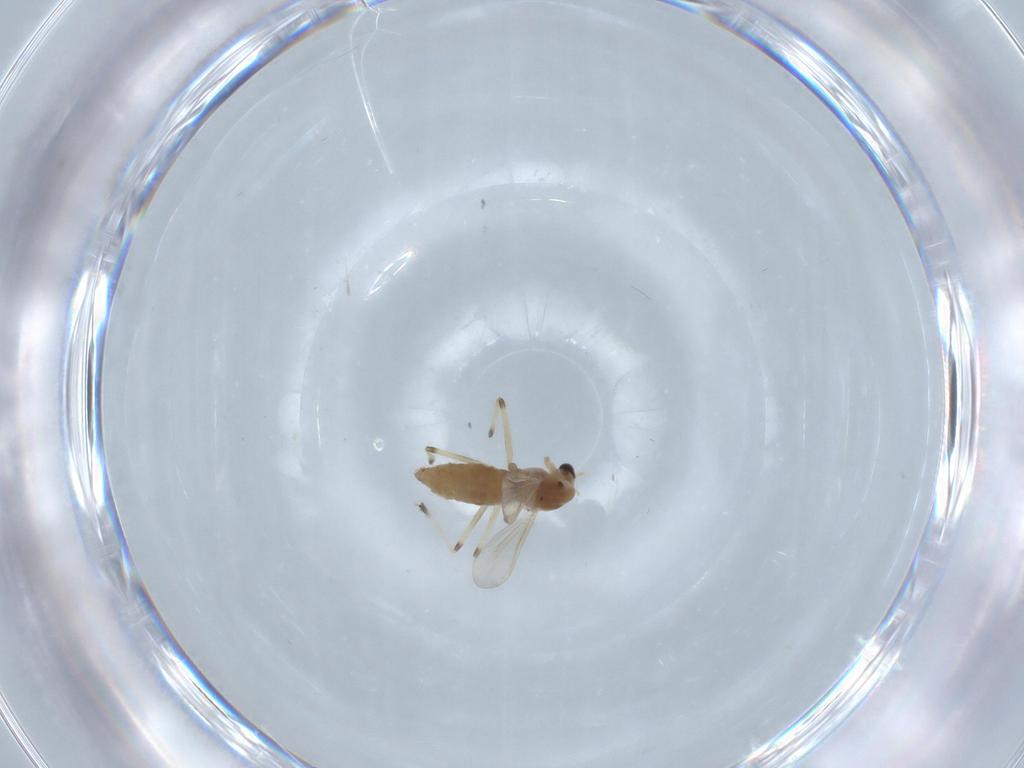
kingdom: Animalia
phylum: Arthropoda
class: Insecta
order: Diptera
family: Chironomidae
